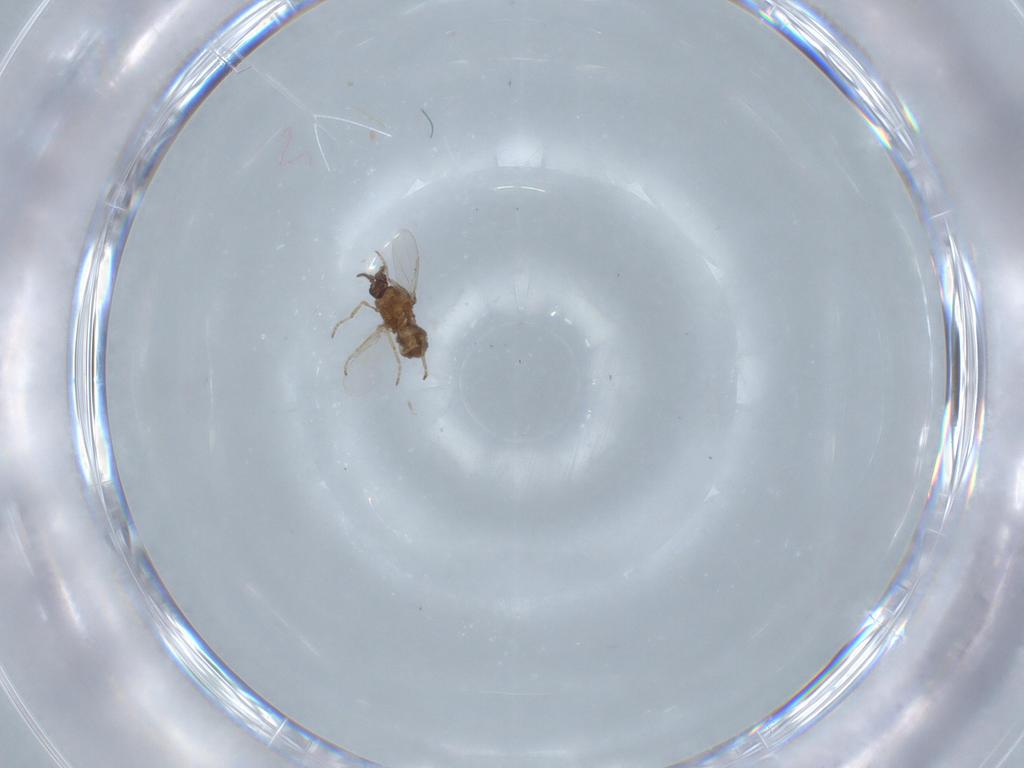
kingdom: Animalia
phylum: Arthropoda
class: Insecta
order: Diptera
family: Ceratopogonidae
